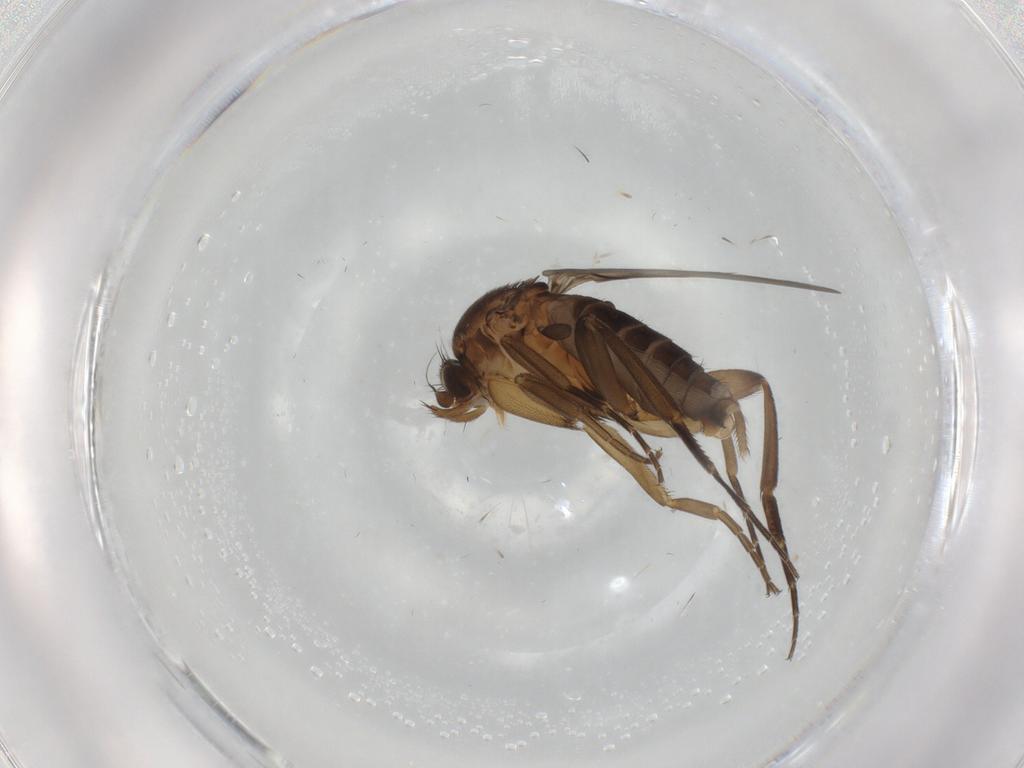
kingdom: Animalia
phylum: Arthropoda
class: Insecta
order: Diptera
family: Phoridae
